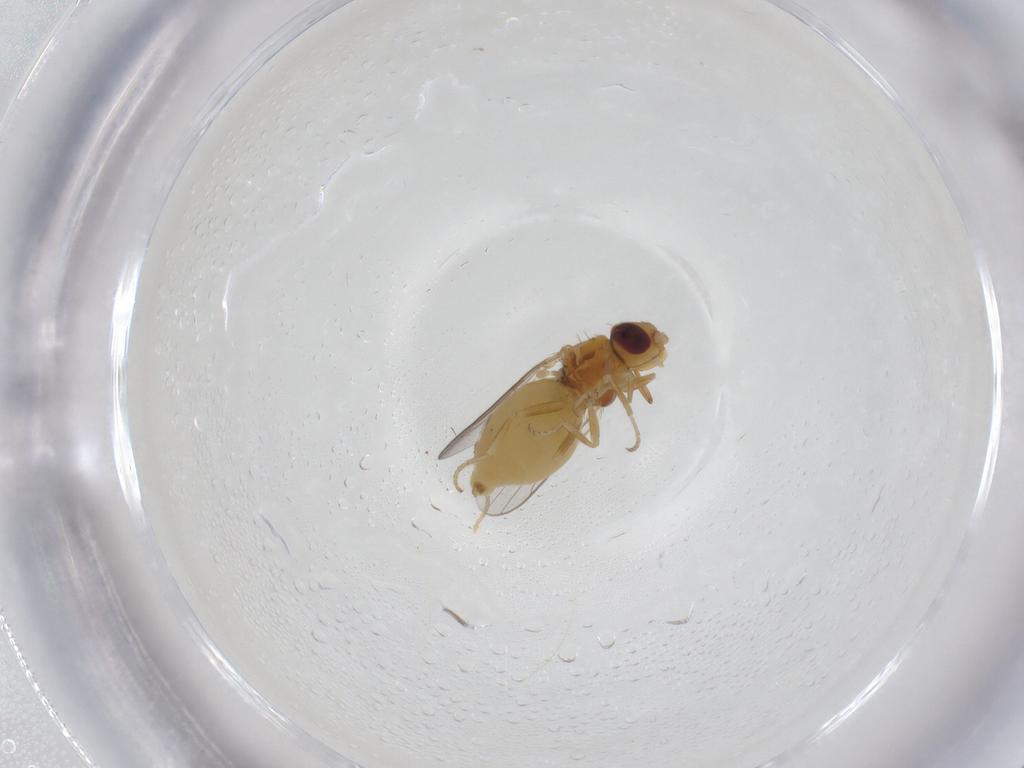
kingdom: Animalia
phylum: Arthropoda
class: Insecta
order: Diptera
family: Chloropidae
